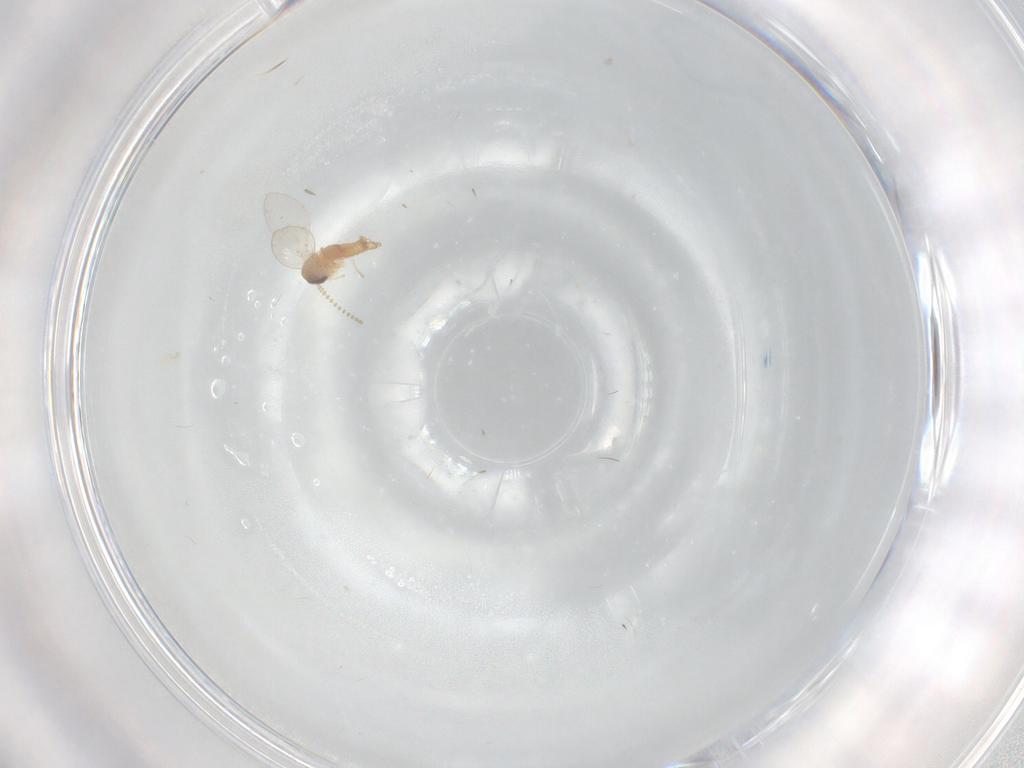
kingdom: Animalia
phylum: Arthropoda
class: Insecta
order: Diptera
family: Psychodidae
